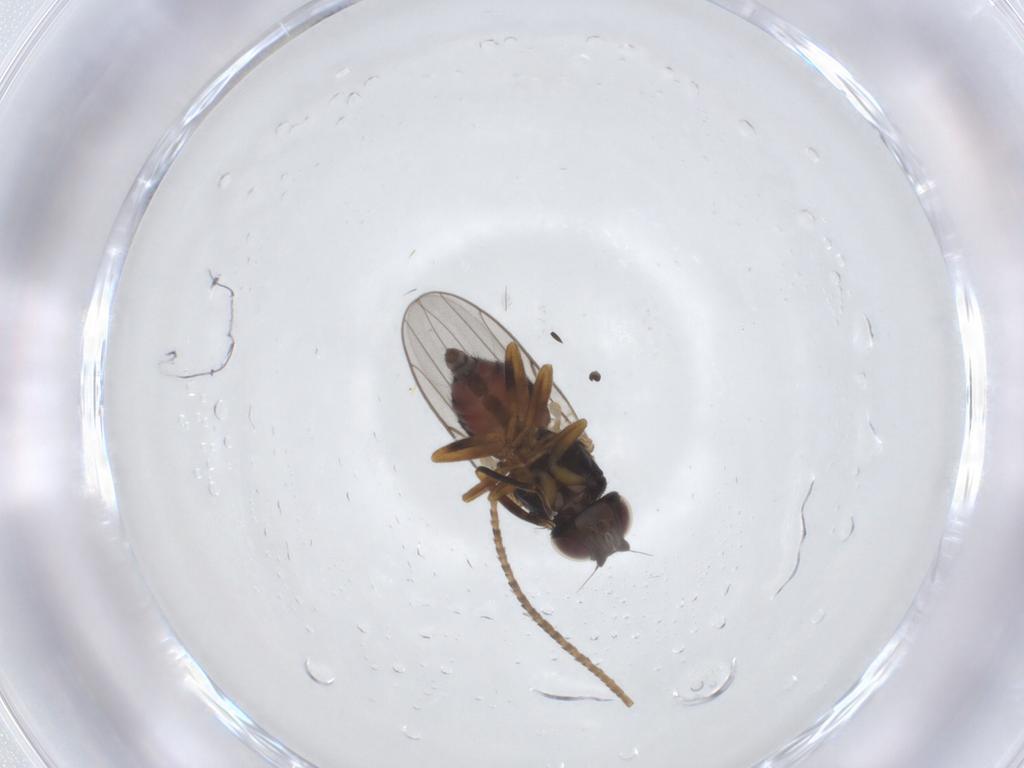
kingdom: Animalia
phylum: Arthropoda
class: Insecta
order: Diptera
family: Chloropidae
